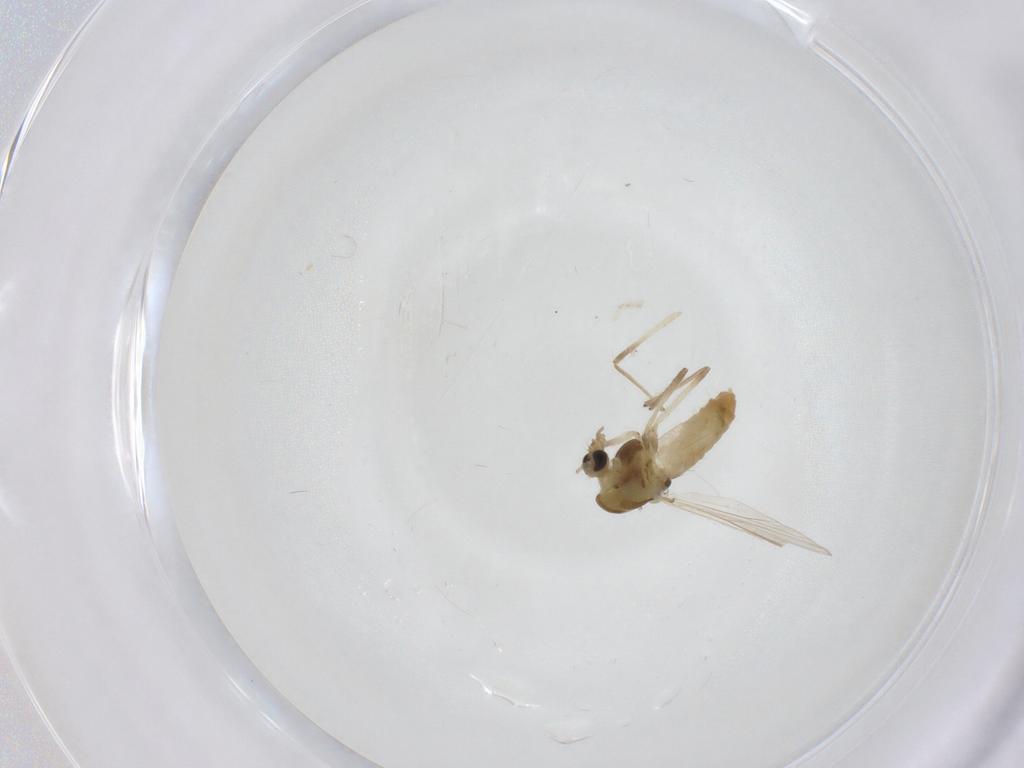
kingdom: Animalia
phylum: Arthropoda
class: Insecta
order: Diptera
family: Chironomidae
